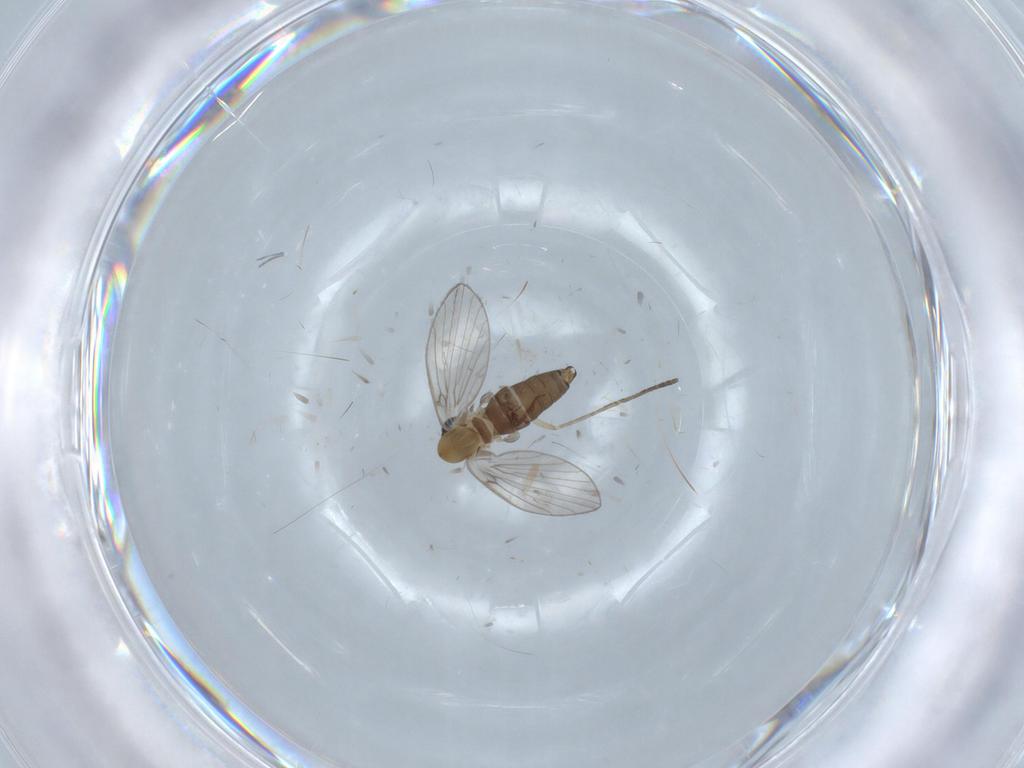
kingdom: Animalia
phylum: Arthropoda
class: Insecta
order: Diptera
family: Psychodidae
